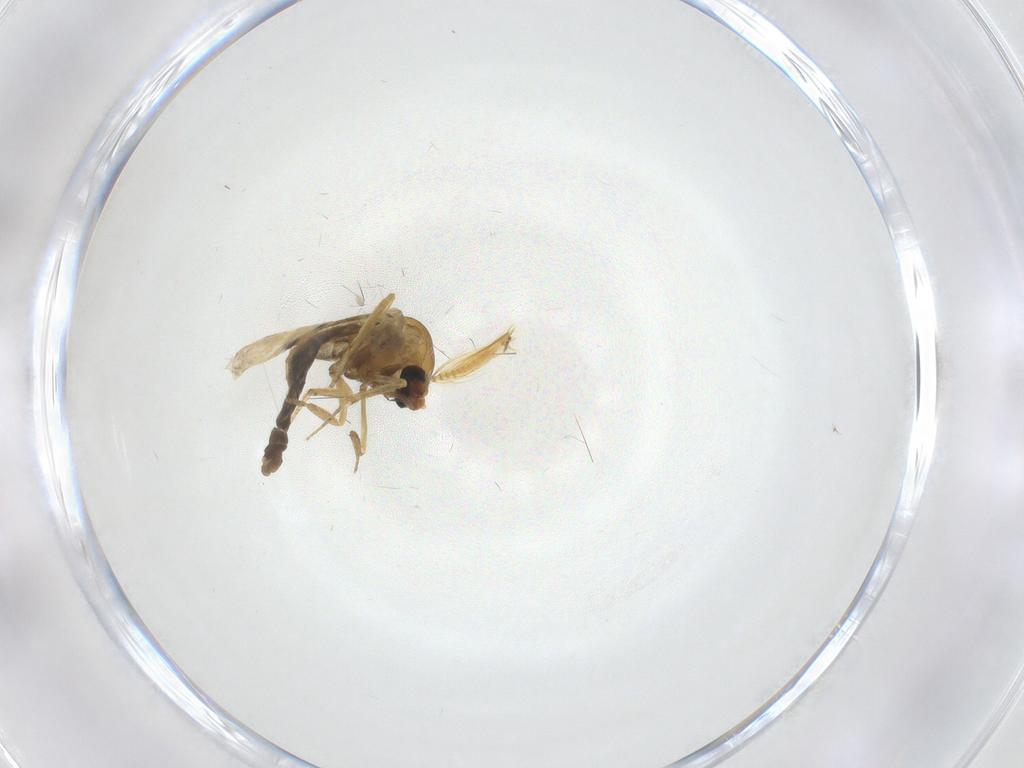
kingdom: Animalia
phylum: Arthropoda
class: Insecta
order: Diptera
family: Ceratopogonidae
